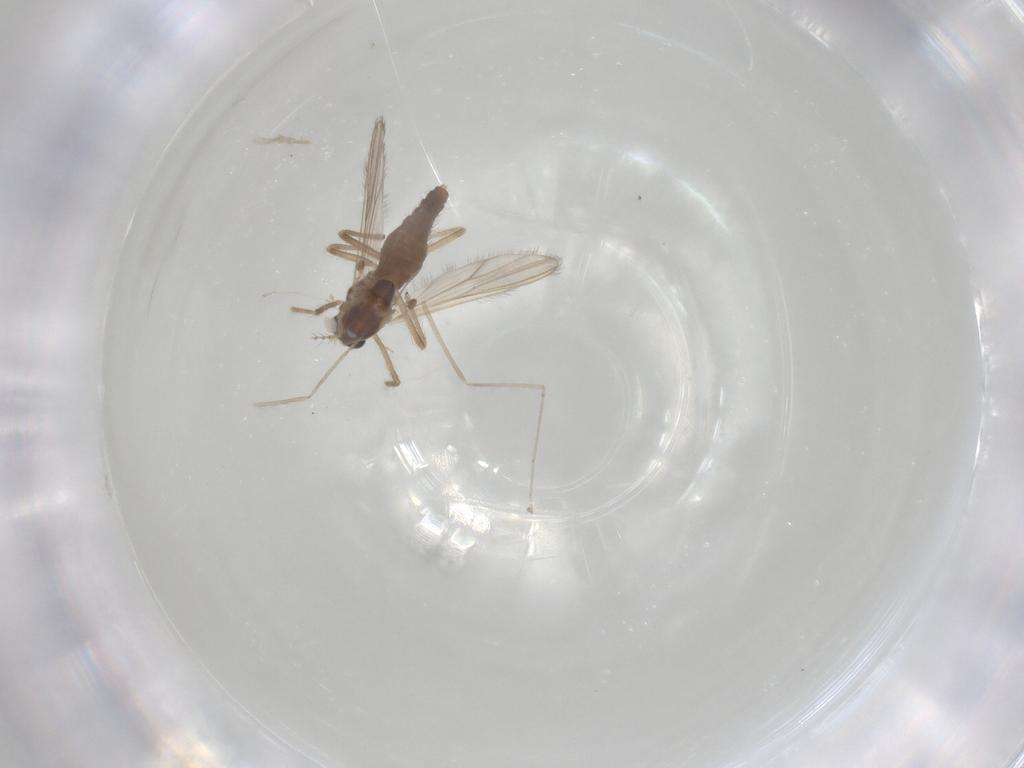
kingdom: Animalia
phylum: Arthropoda
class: Insecta
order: Diptera
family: Chironomidae
